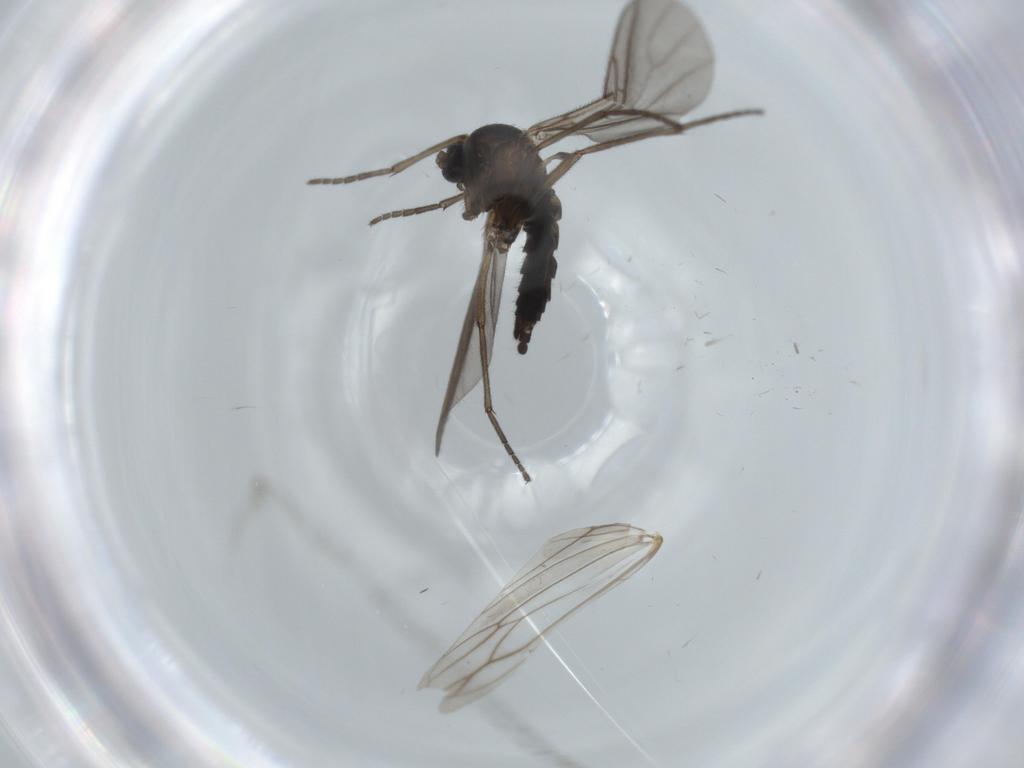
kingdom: Animalia
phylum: Arthropoda
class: Insecta
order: Diptera
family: Sciaridae
